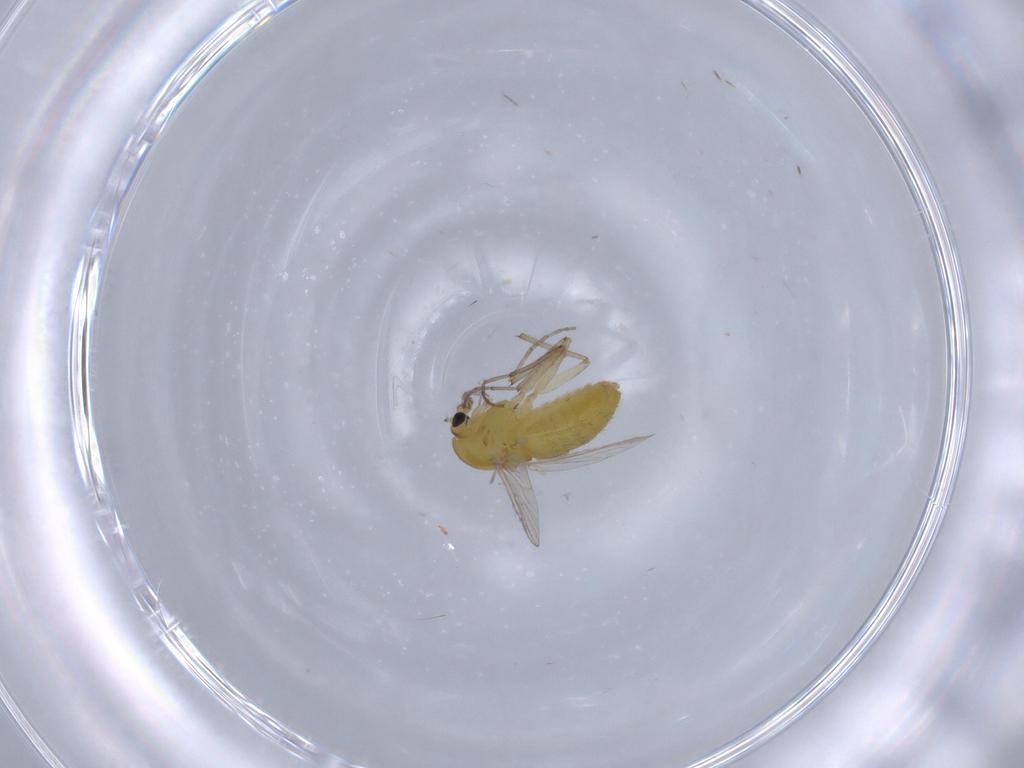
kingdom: Animalia
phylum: Arthropoda
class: Insecta
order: Diptera
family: Chironomidae
